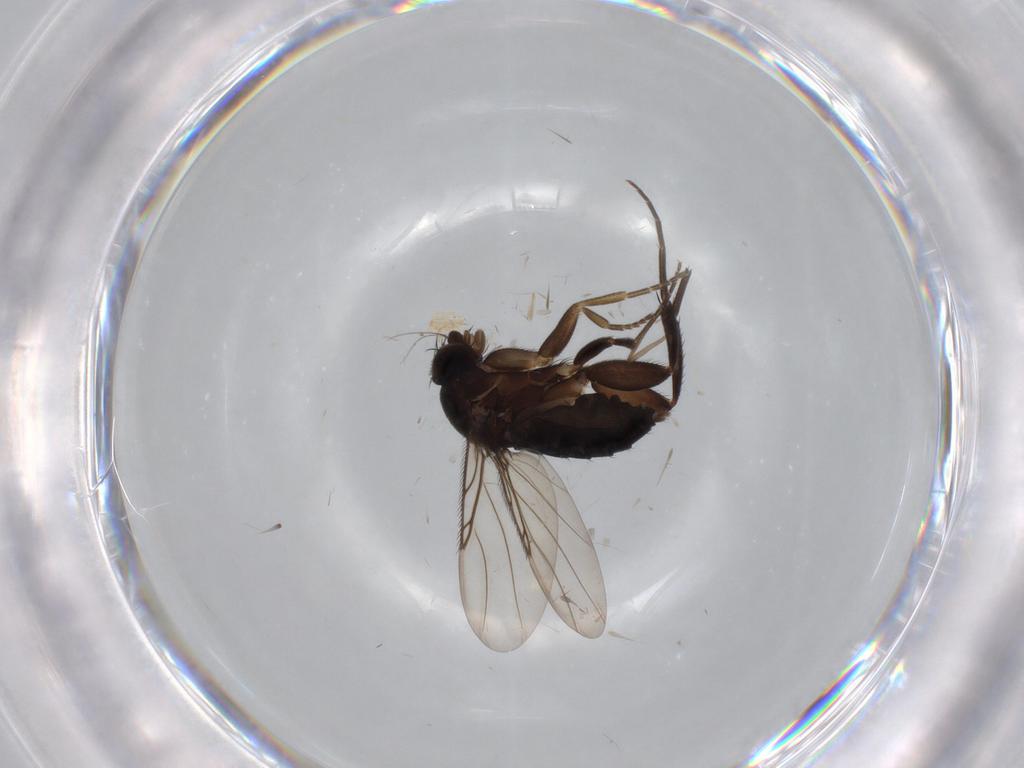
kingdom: Animalia
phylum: Arthropoda
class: Insecta
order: Diptera
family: Chironomidae
